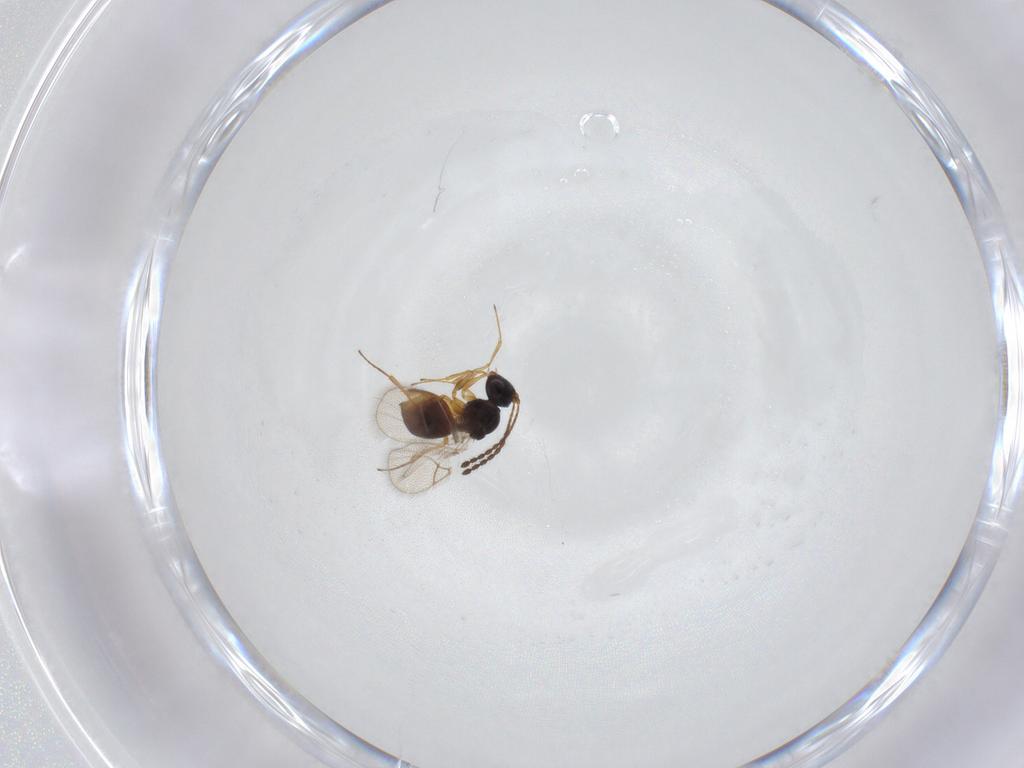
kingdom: Animalia
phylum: Arthropoda
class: Insecta
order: Hymenoptera
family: Figitidae
